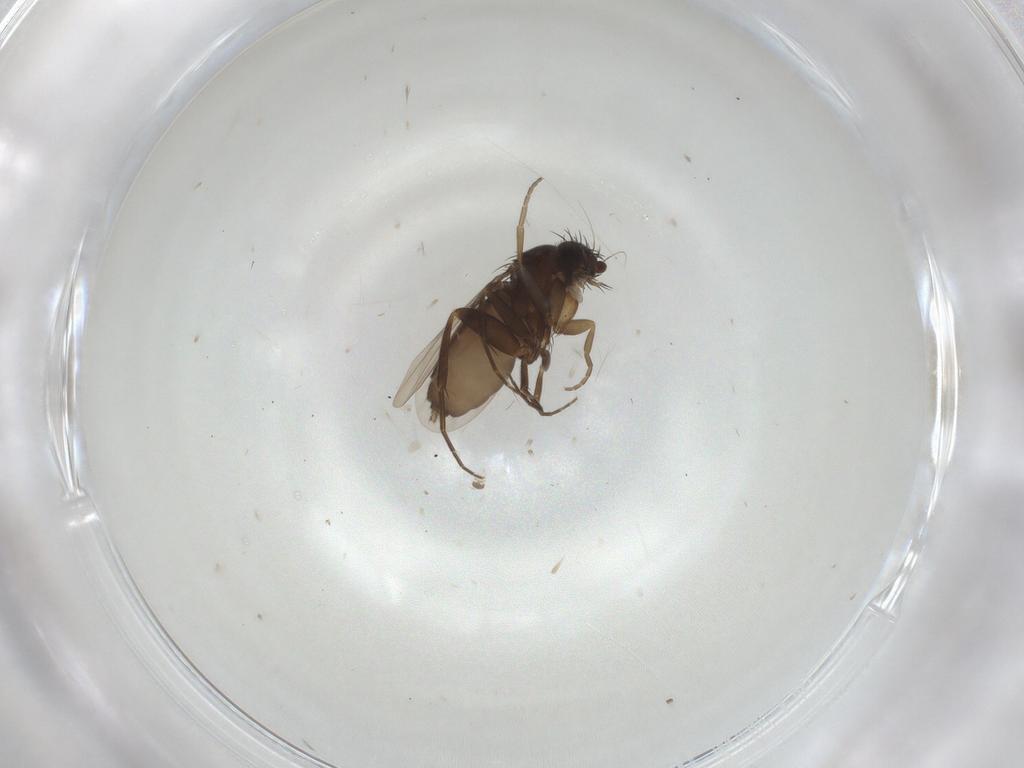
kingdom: Animalia
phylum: Arthropoda
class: Insecta
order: Diptera
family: Phoridae
